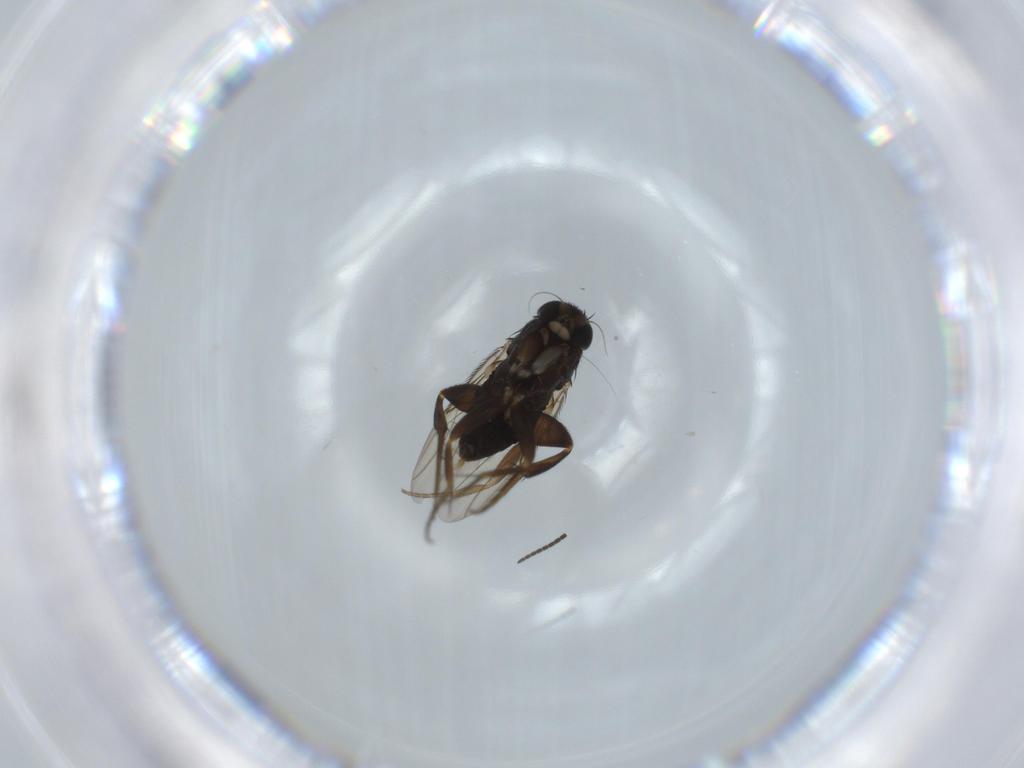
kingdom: Animalia
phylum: Arthropoda
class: Insecta
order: Diptera
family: Phoridae
